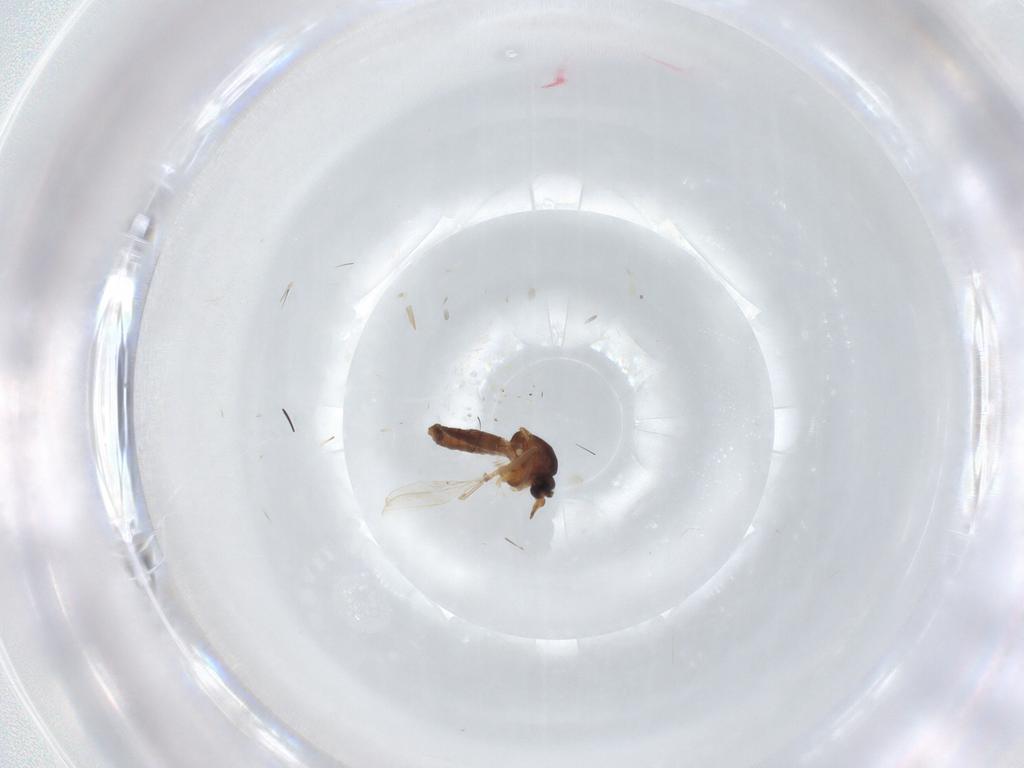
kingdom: Animalia
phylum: Arthropoda
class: Insecta
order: Diptera
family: Ceratopogonidae
